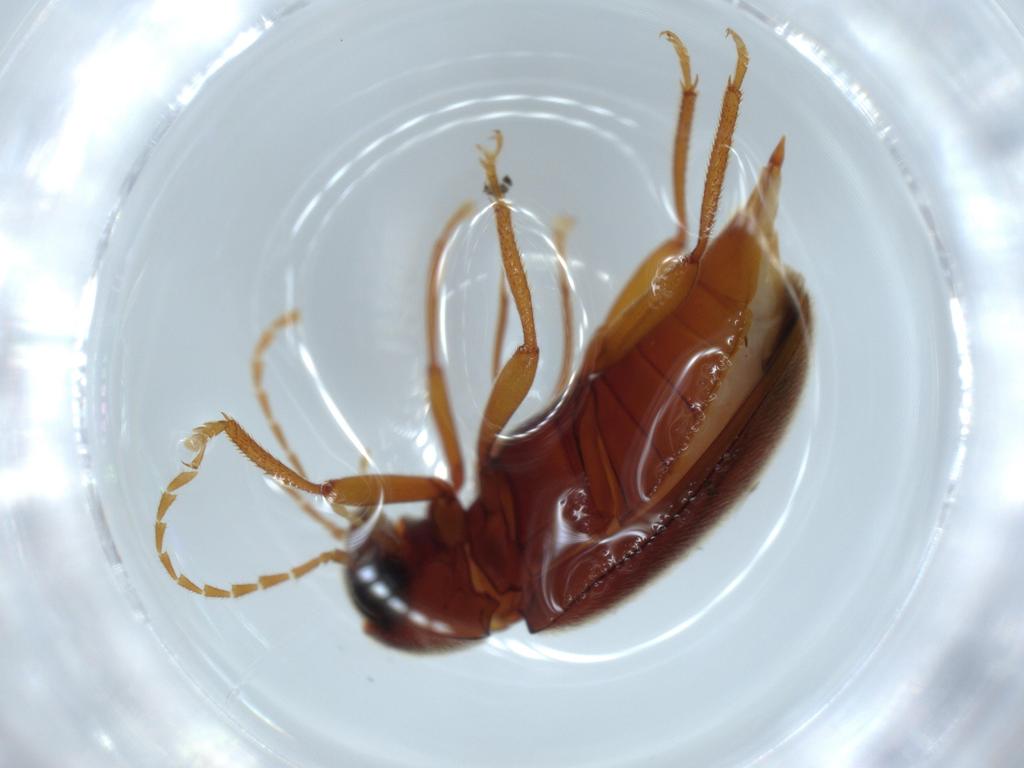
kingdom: Animalia
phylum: Arthropoda
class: Insecta
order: Coleoptera
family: Ptilodactylidae
